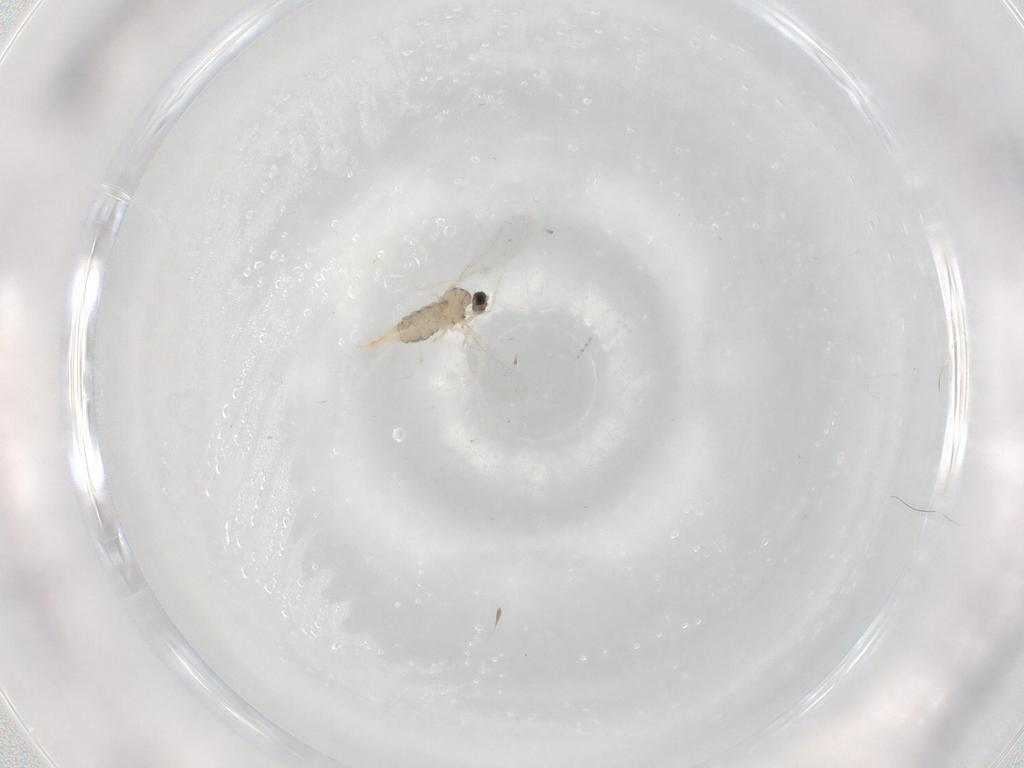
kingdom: Animalia
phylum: Arthropoda
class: Insecta
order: Diptera
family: Cecidomyiidae
